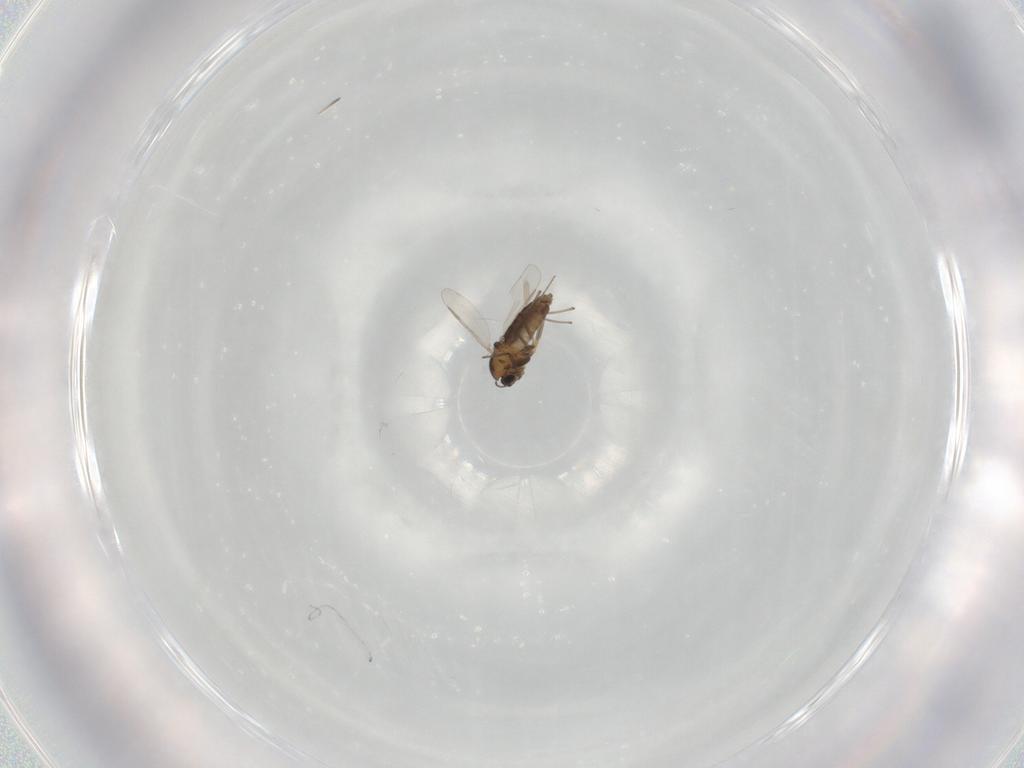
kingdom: Animalia
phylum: Arthropoda
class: Insecta
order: Diptera
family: Chironomidae
